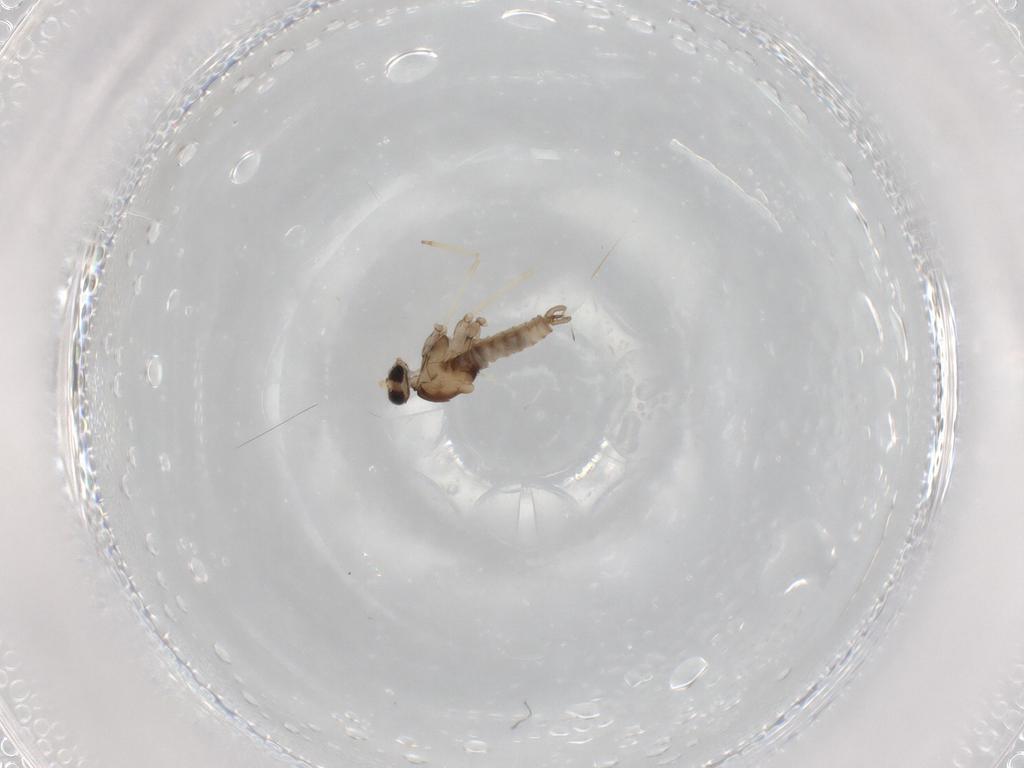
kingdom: Animalia
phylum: Arthropoda
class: Insecta
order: Diptera
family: Cecidomyiidae
